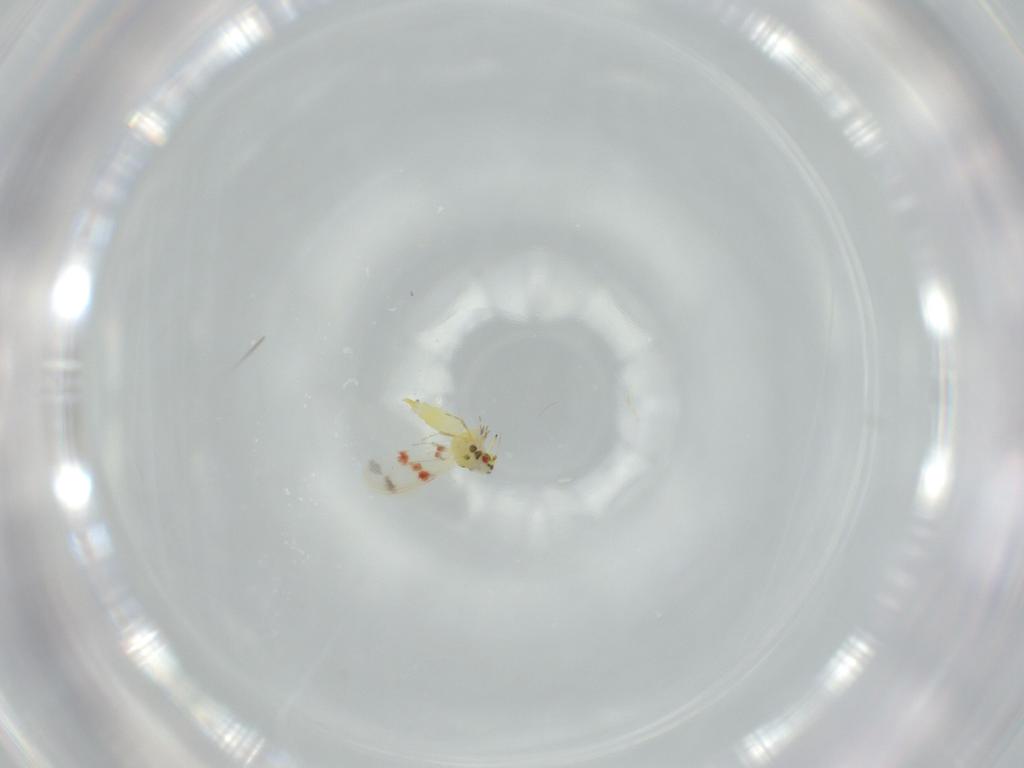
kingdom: Animalia
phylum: Arthropoda
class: Insecta
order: Hemiptera
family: Aleyrodidae
